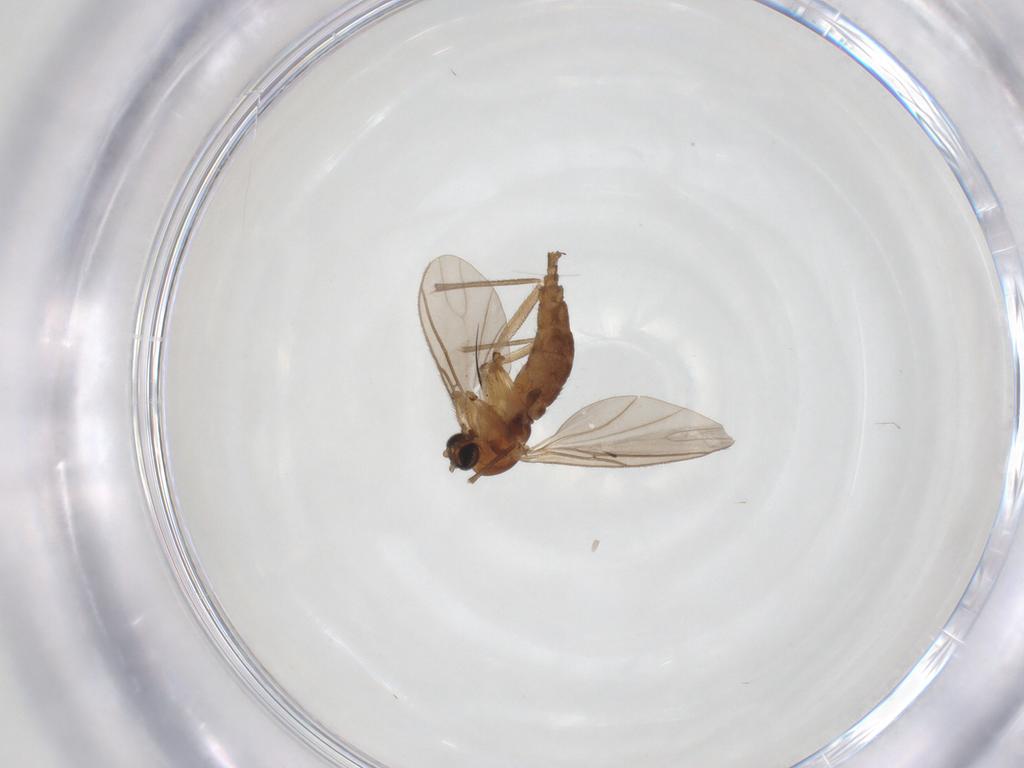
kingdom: Animalia
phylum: Arthropoda
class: Insecta
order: Diptera
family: Sciaridae
